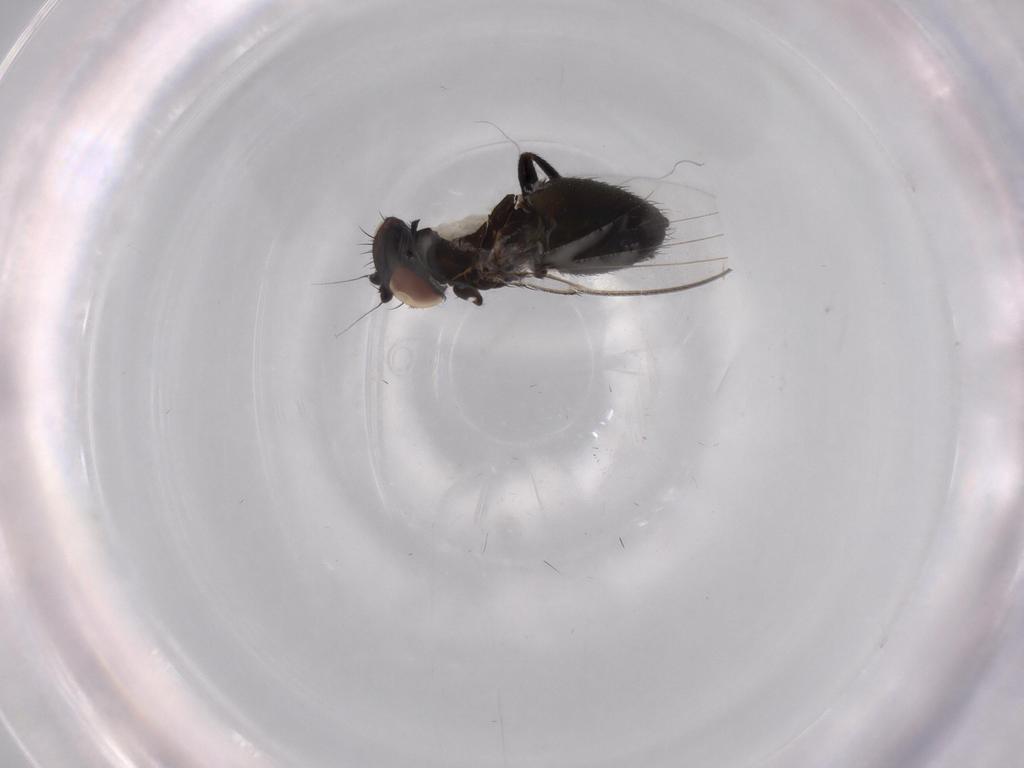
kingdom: Animalia
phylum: Arthropoda
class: Insecta
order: Diptera
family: Milichiidae
